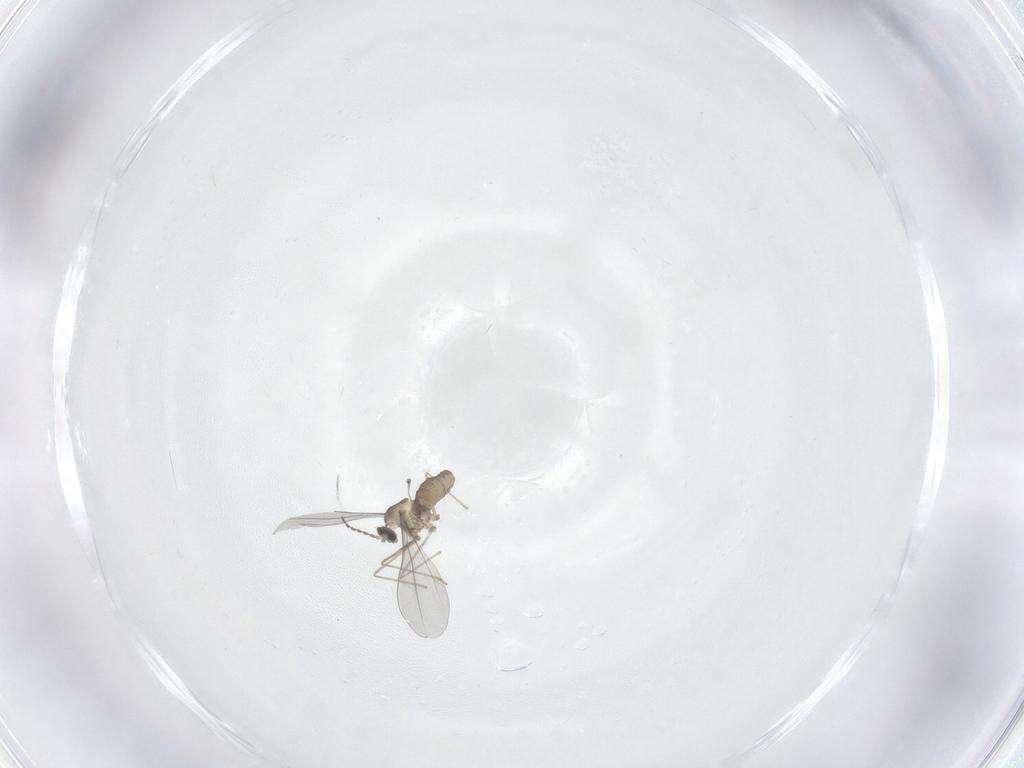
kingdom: Animalia
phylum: Arthropoda
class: Insecta
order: Diptera
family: Cecidomyiidae
